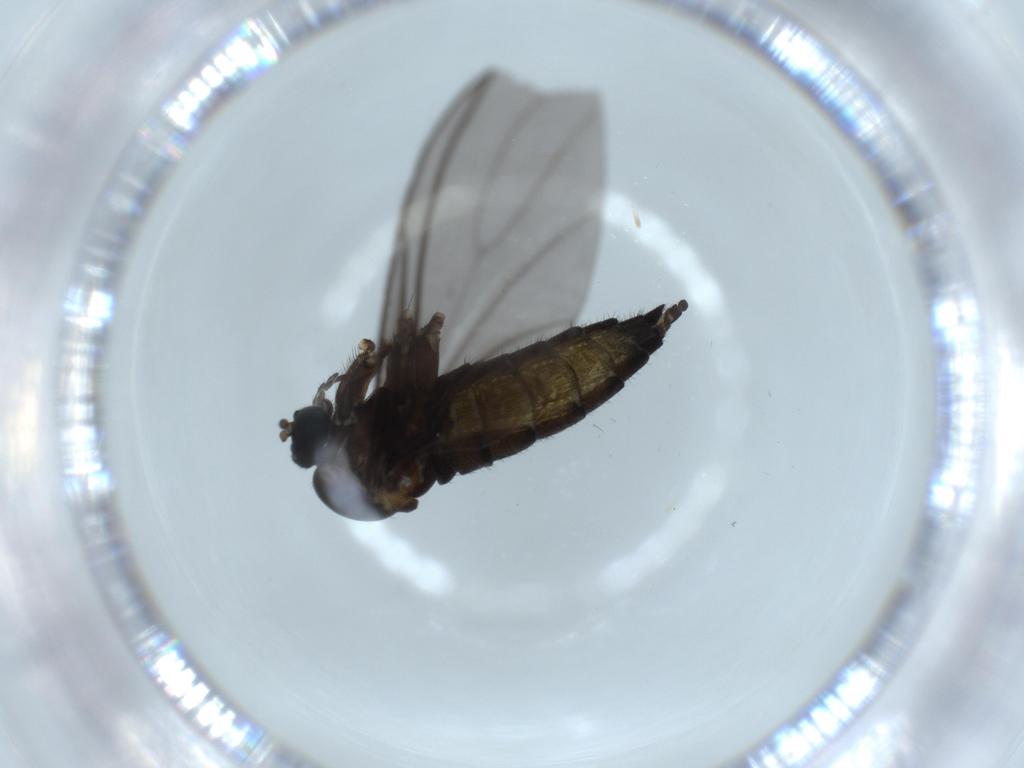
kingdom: Animalia
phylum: Arthropoda
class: Insecta
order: Diptera
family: Sciaridae
